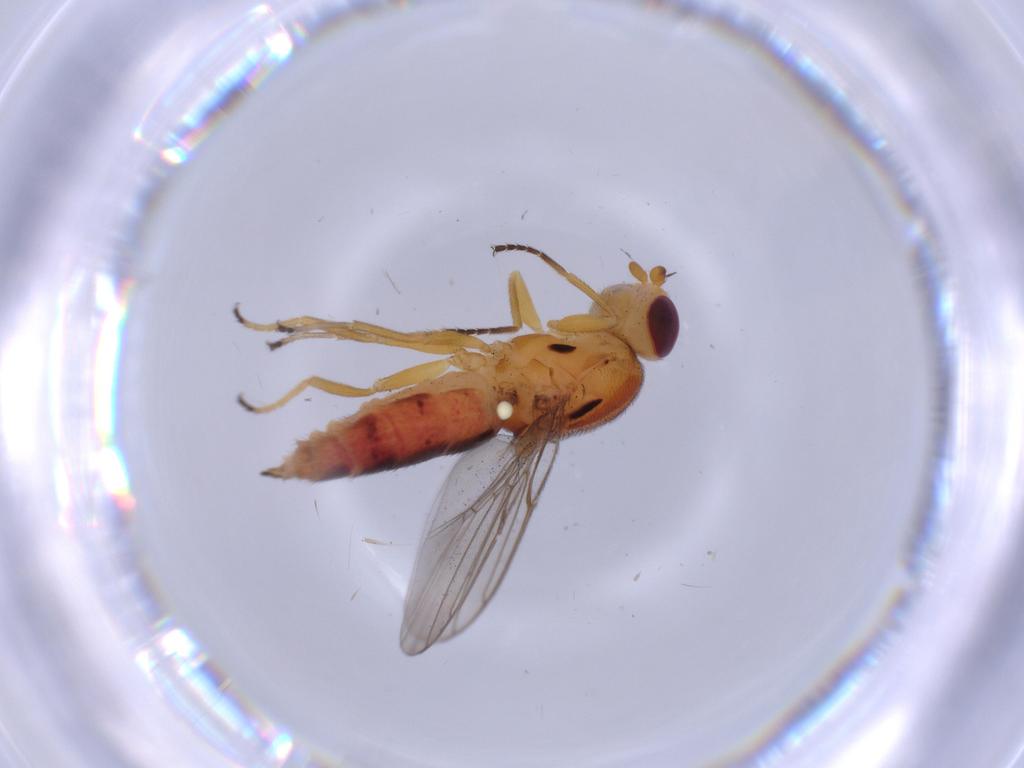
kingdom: Animalia
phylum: Arthropoda
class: Insecta
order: Diptera
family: Chloropidae
